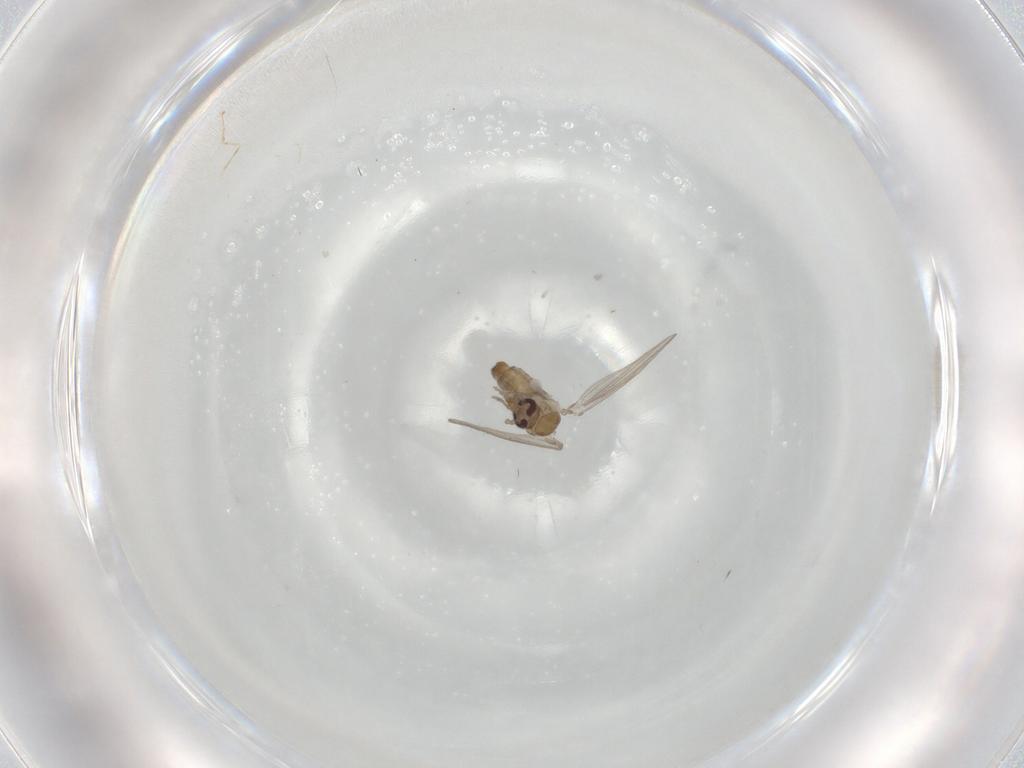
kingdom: Animalia
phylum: Arthropoda
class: Insecta
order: Diptera
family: Psychodidae
